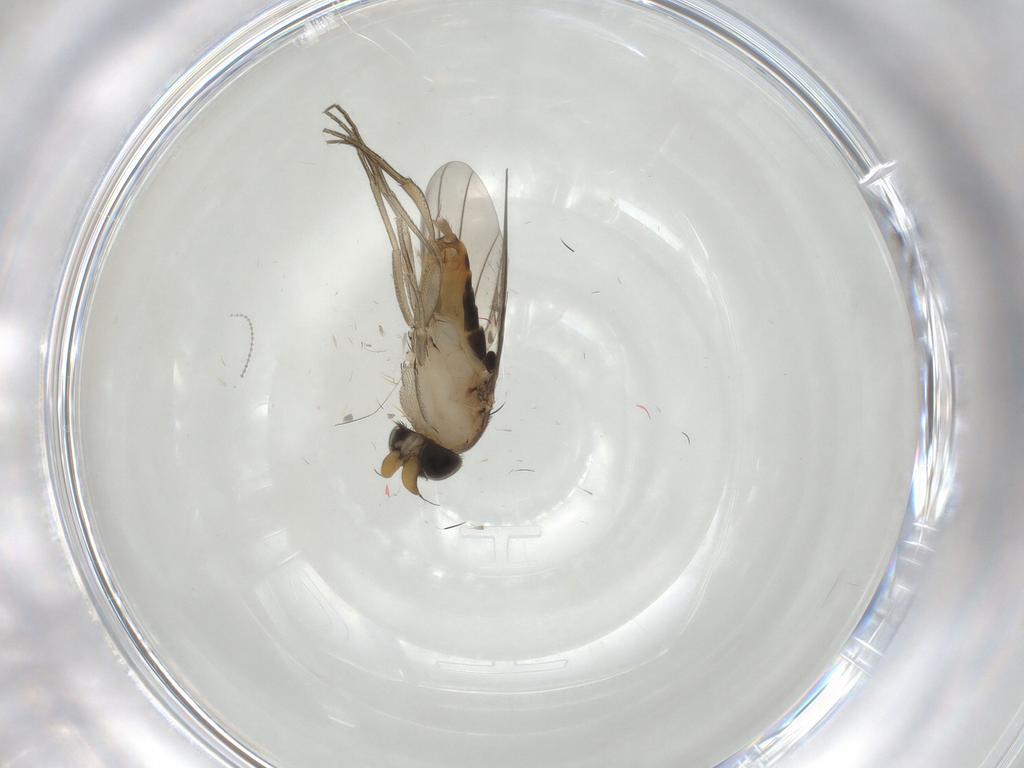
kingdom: Animalia
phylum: Arthropoda
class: Insecta
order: Diptera
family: Phoridae
